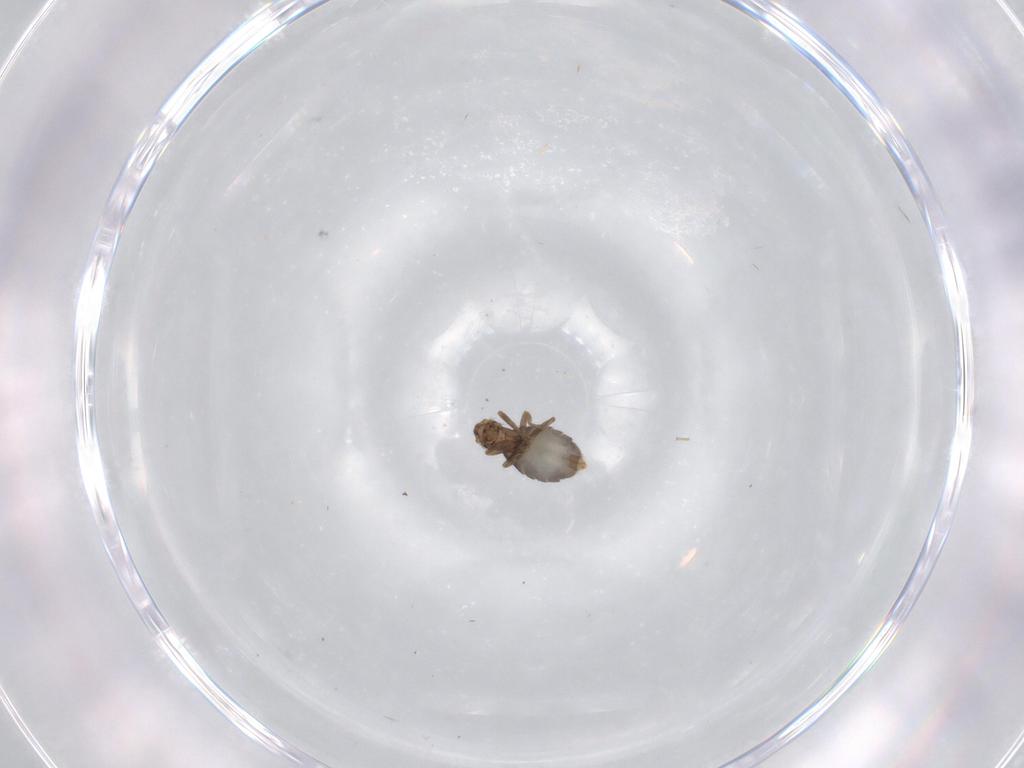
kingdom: Animalia
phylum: Arthropoda
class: Insecta
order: Diptera
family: Phoridae
